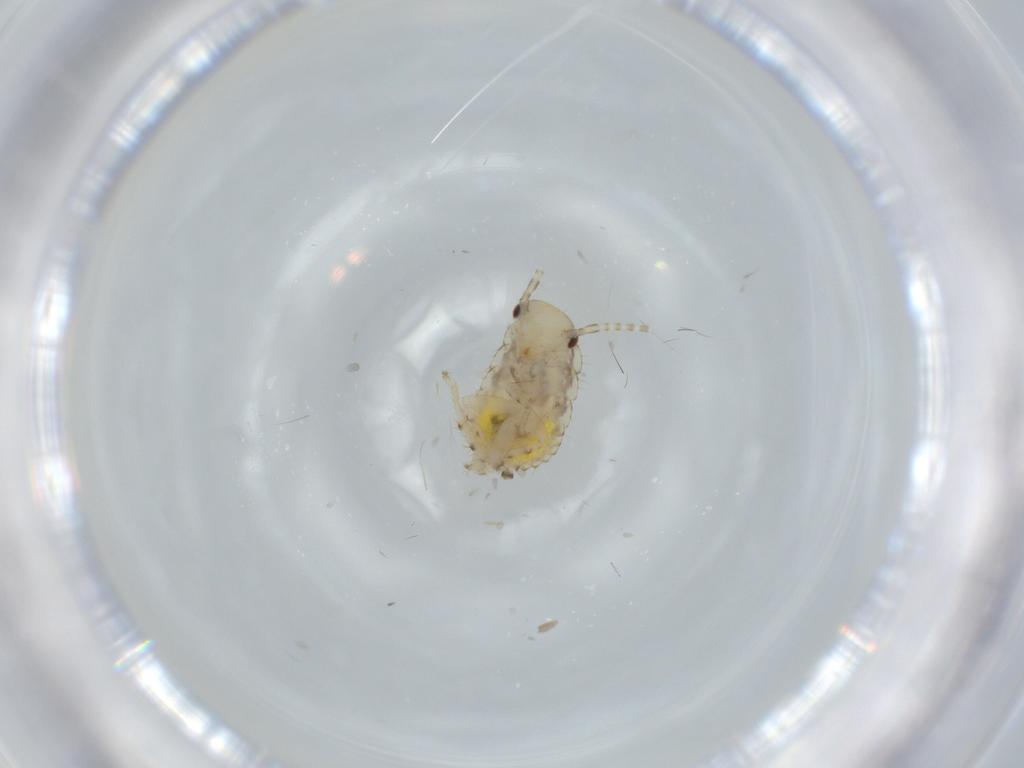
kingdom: Animalia
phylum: Arthropoda
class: Insecta
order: Blattodea
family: Ectobiidae
